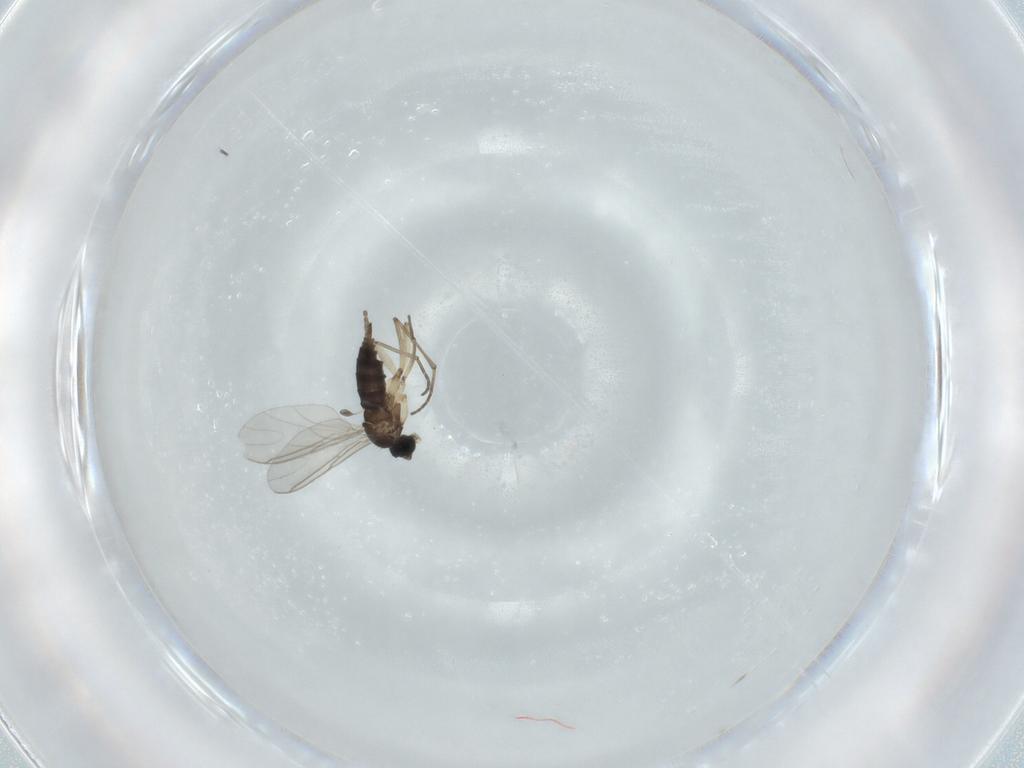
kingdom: Animalia
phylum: Arthropoda
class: Insecta
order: Diptera
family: Sciaridae
